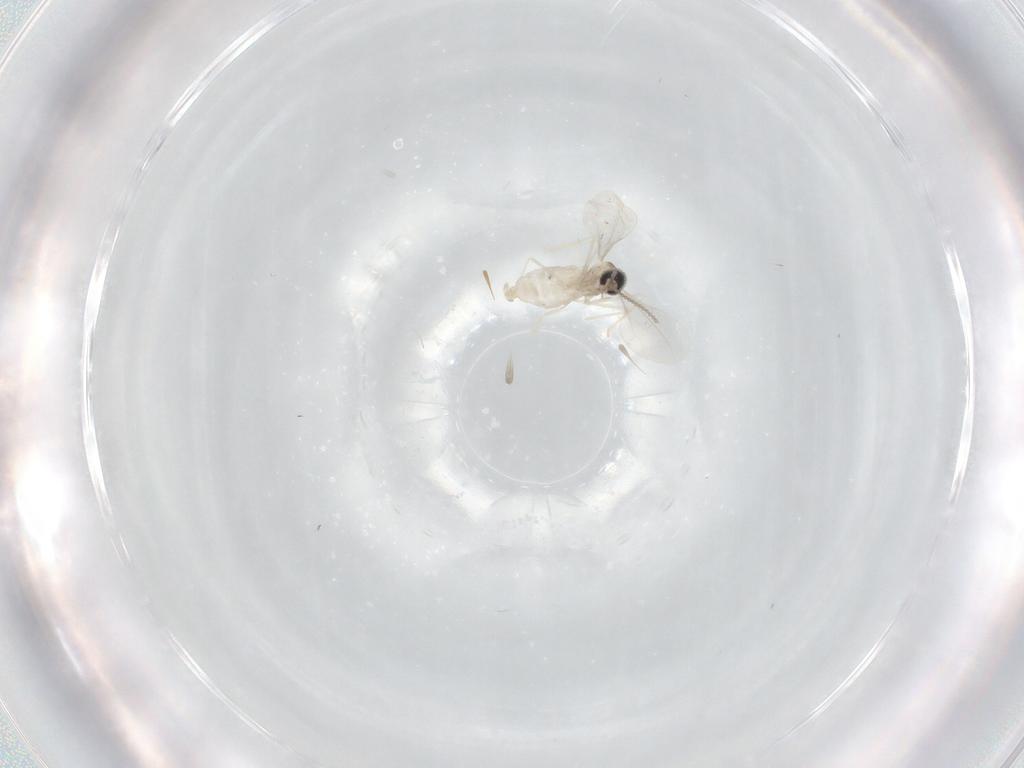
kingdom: Animalia
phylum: Arthropoda
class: Insecta
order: Diptera
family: Cecidomyiidae
